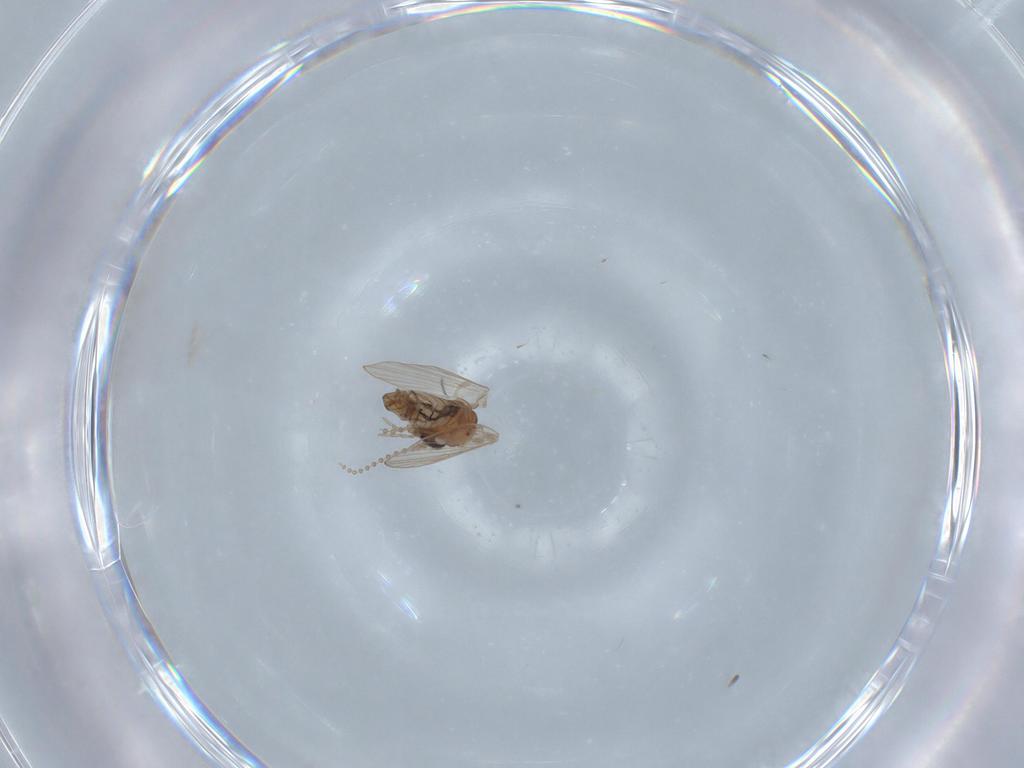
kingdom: Animalia
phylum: Arthropoda
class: Insecta
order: Diptera
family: Psychodidae
